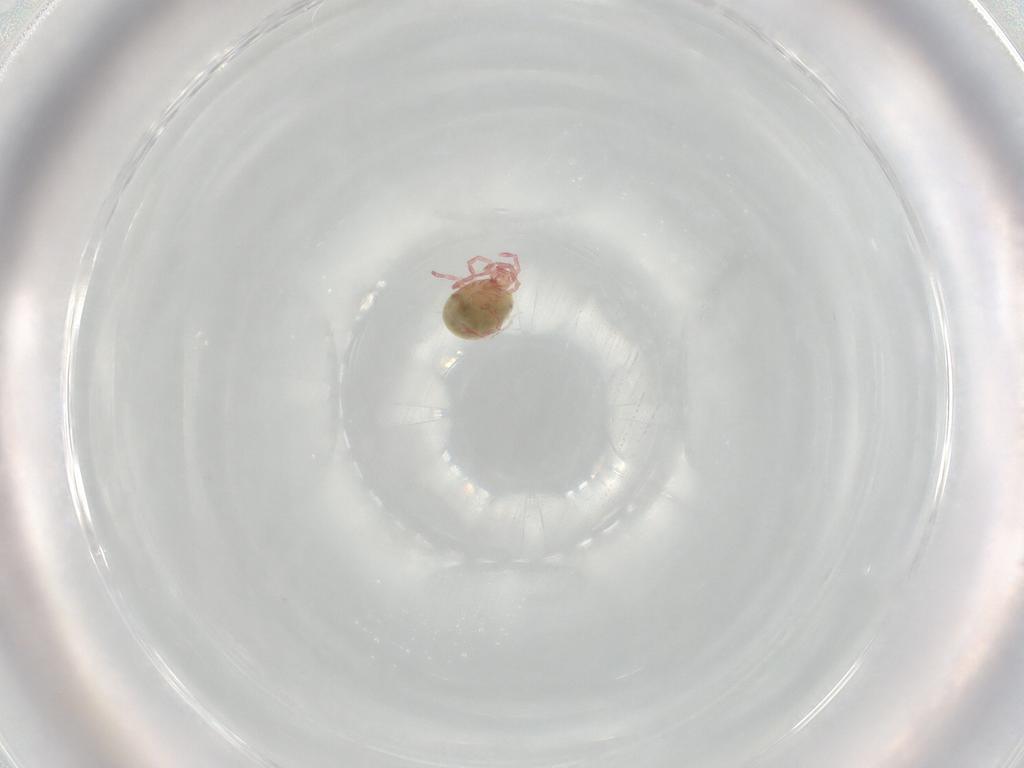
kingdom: Animalia
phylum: Arthropoda
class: Arachnida
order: Trombidiformes
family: Pionidae
